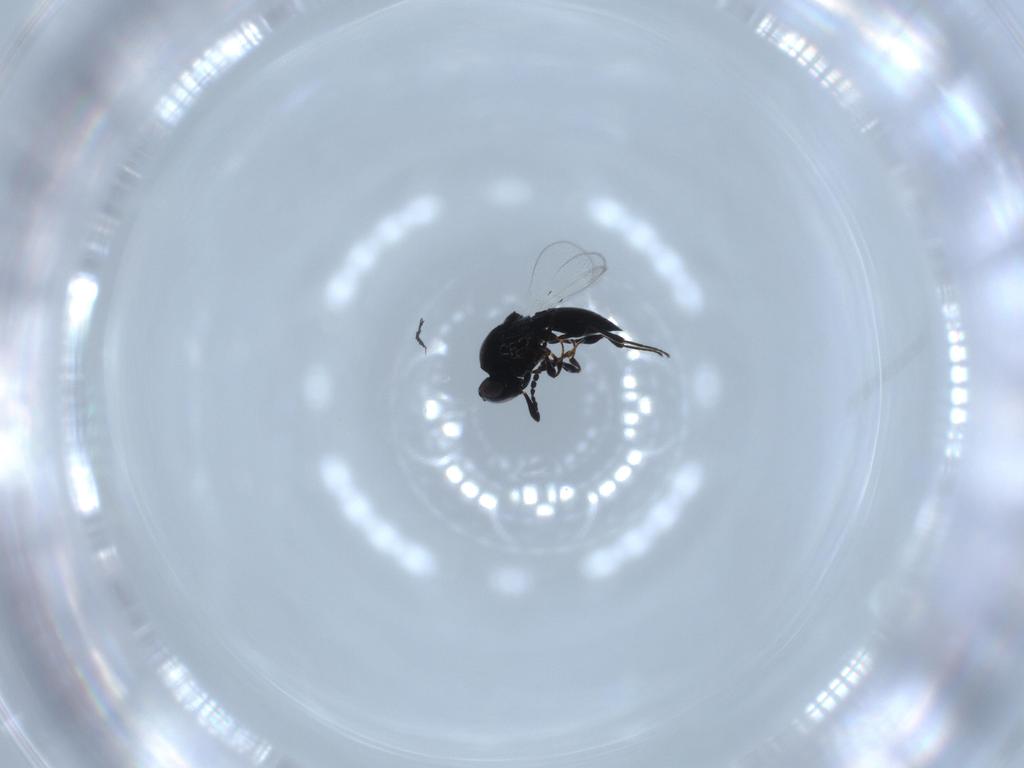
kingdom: Animalia
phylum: Arthropoda
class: Insecta
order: Hymenoptera
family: Platygastridae
